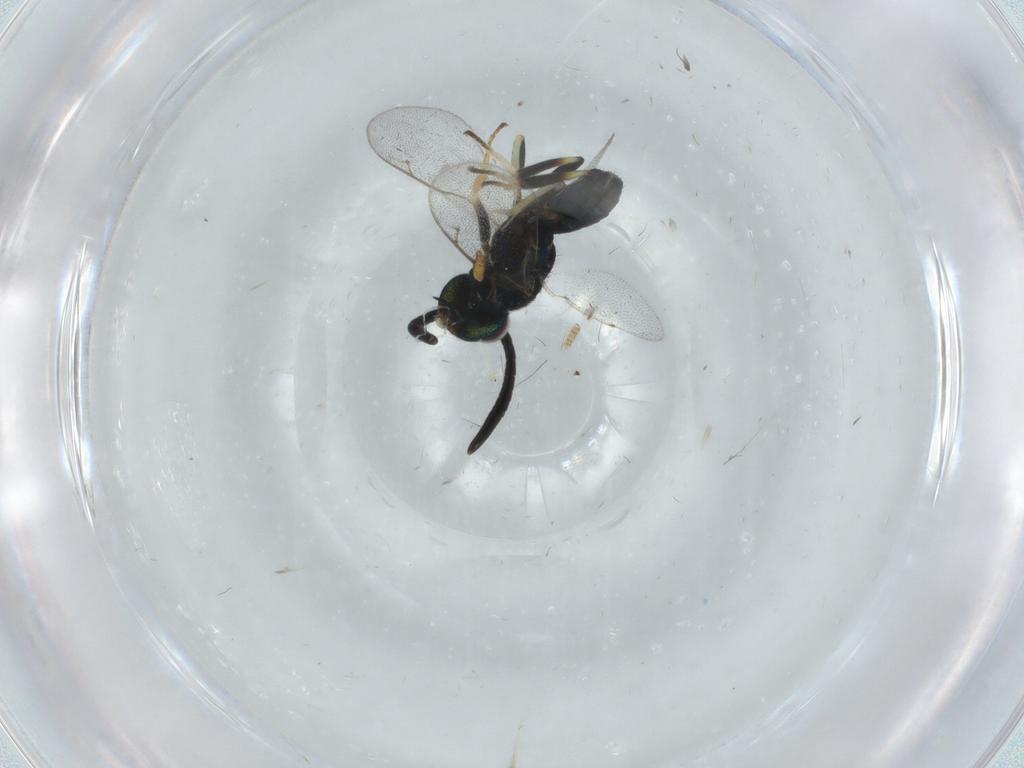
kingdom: Animalia
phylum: Arthropoda
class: Insecta
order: Hymenoptera
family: Eupelmidae
